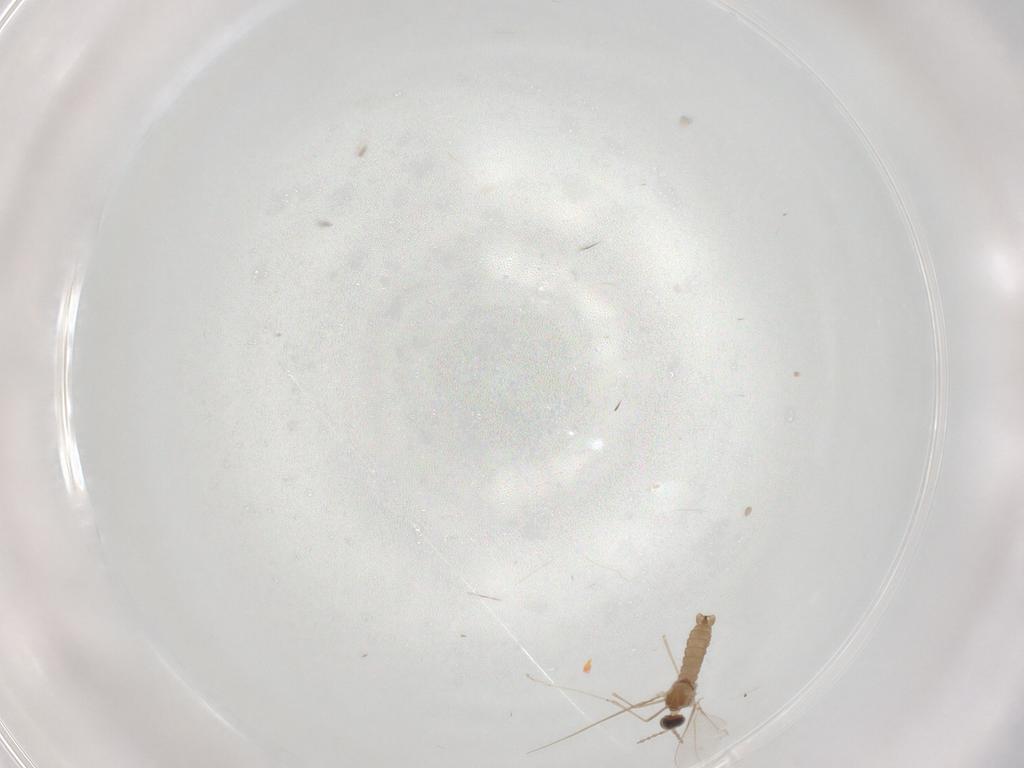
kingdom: Animalia
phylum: Arthropoda
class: Insecta
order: Diptera
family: Cecidomyiidae
